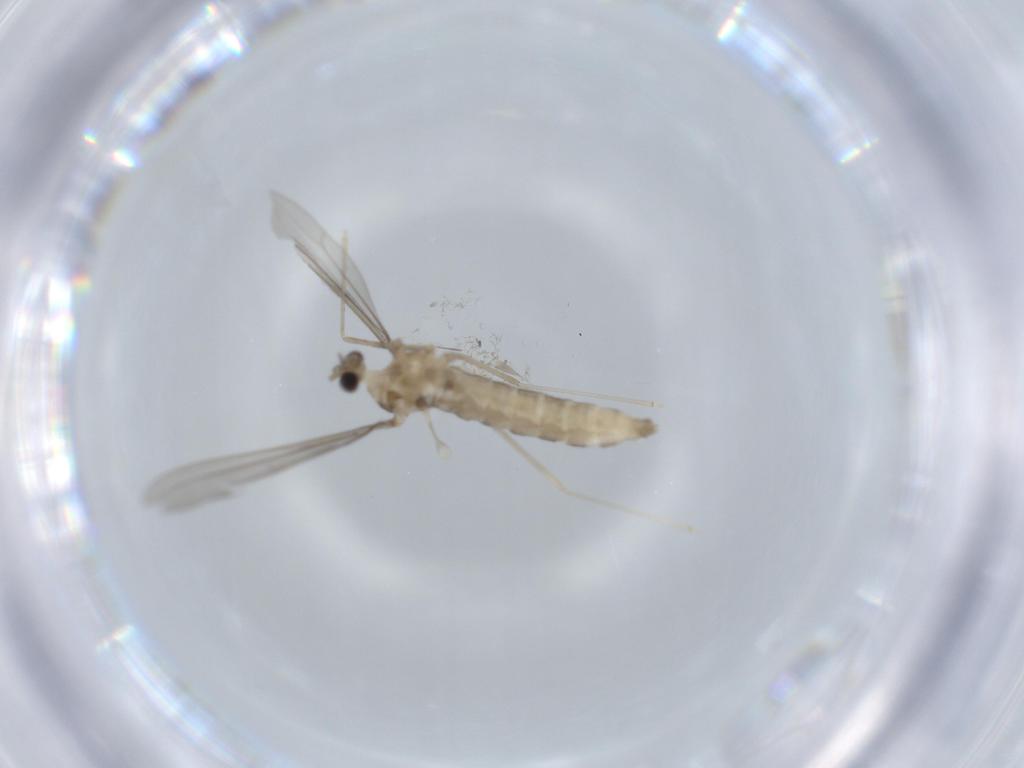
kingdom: Animalia
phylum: Arthropoda
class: Insecta
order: Diptera
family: Cecidomyiidae
